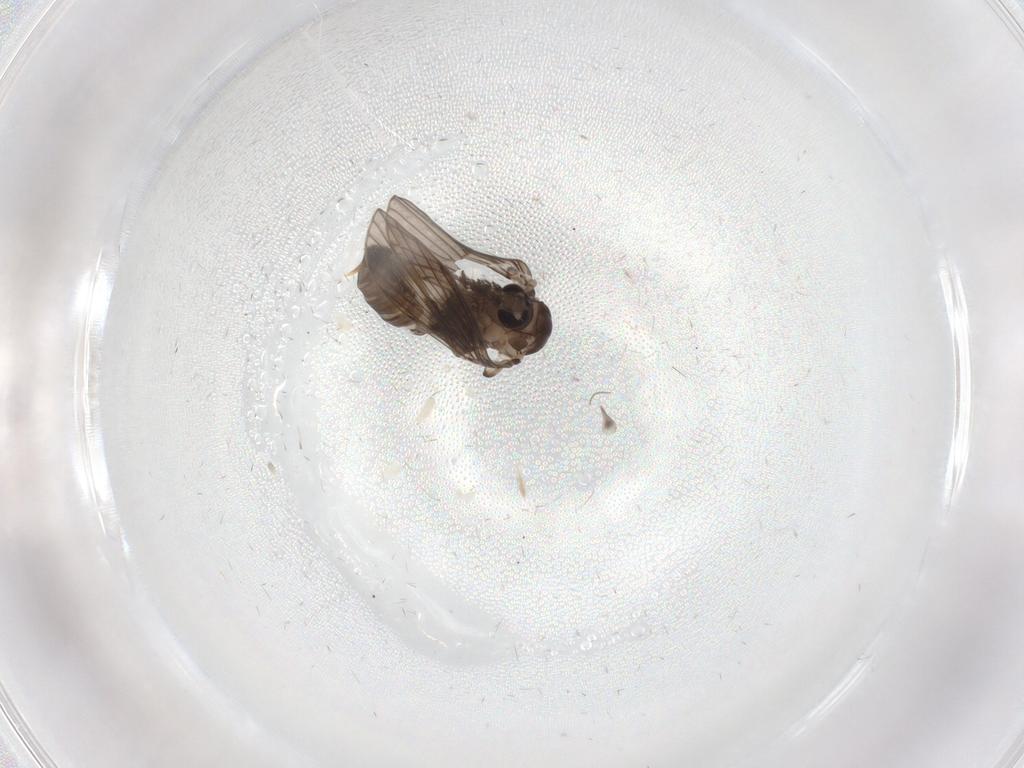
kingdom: Animalia
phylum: Arthropoda
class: Insecta
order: Diptera
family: Psychodidae
